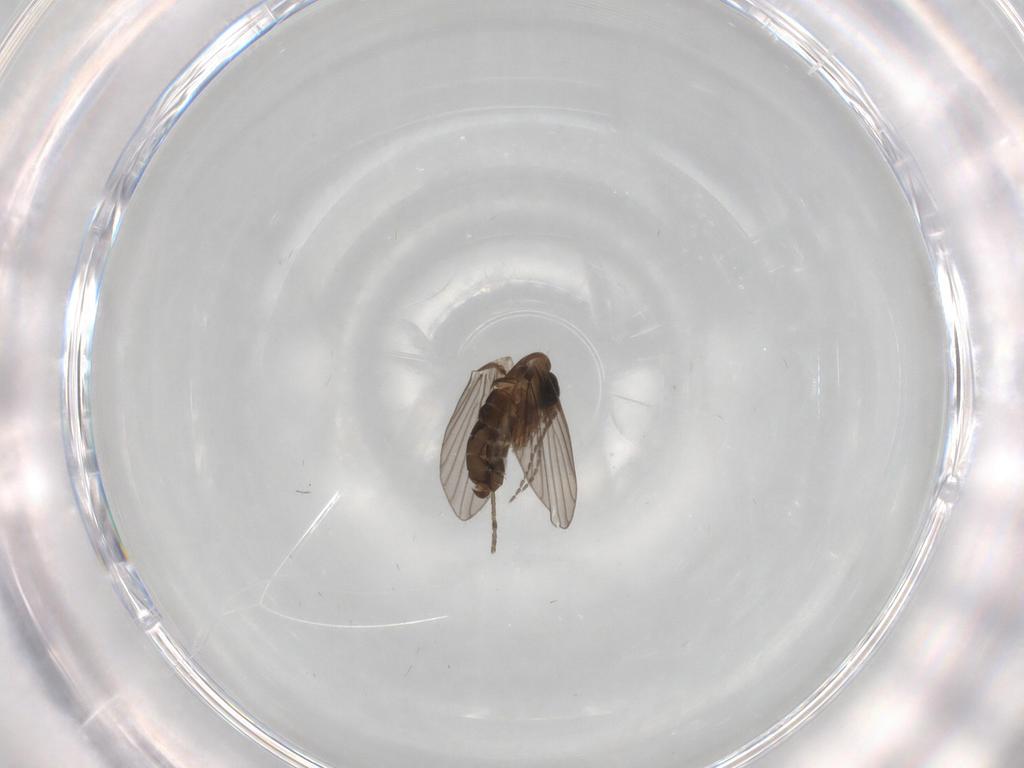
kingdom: Animalia
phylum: Arthropoda
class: Insecta
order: Diptera
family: Psychodidae
